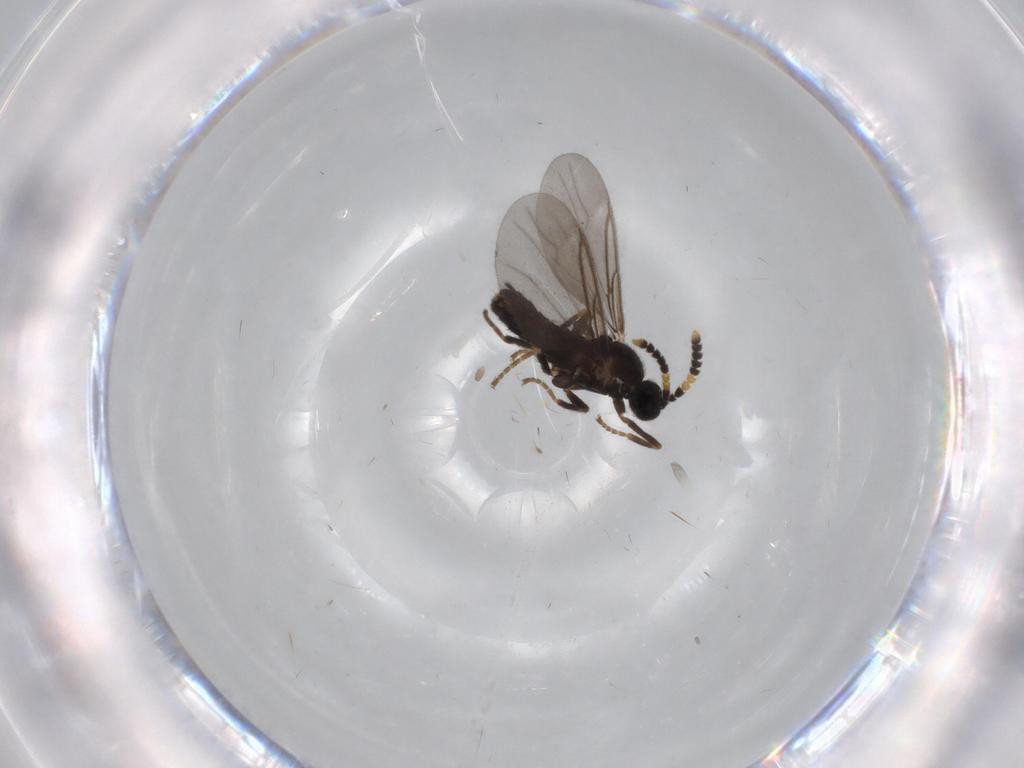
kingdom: Animalia
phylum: Arthropoda
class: Insecta
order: Diptera
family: Scatopsidae
